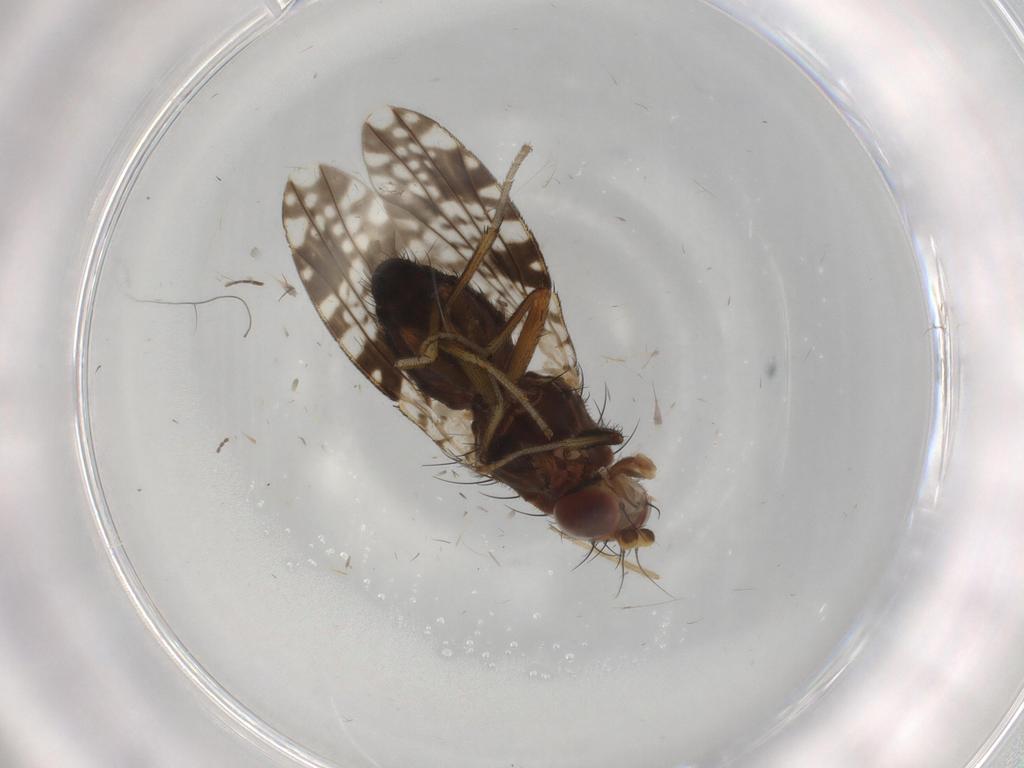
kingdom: Animalia
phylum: Arthropoda
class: Insecta
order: Diptera
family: Tephritidae
